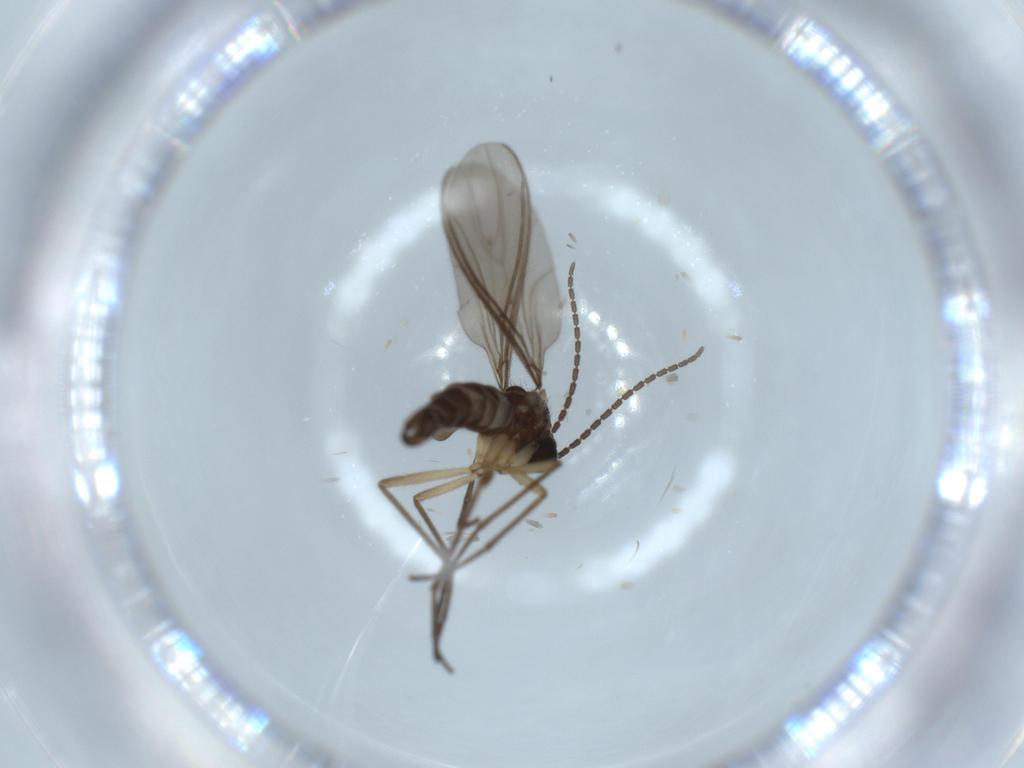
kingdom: Animalia
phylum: Arthropoda
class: Insecta
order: Diptera
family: Sciaridae
